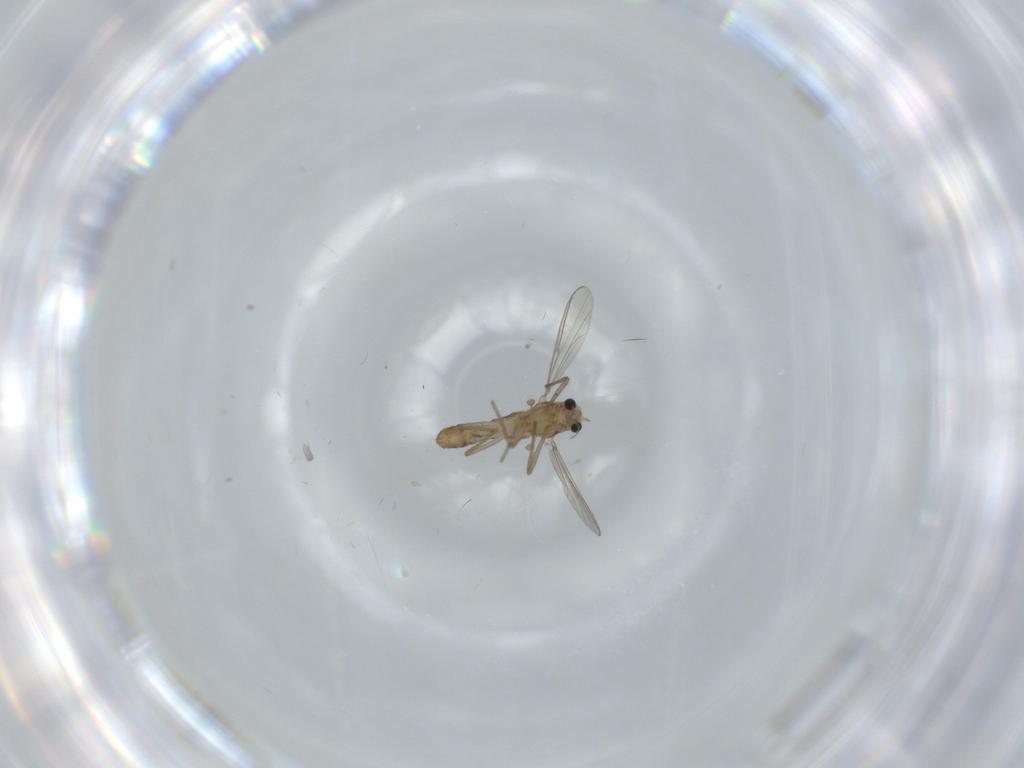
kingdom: Animalia
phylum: Arthropoda
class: Insecta
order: Diptera
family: Chironomidae
